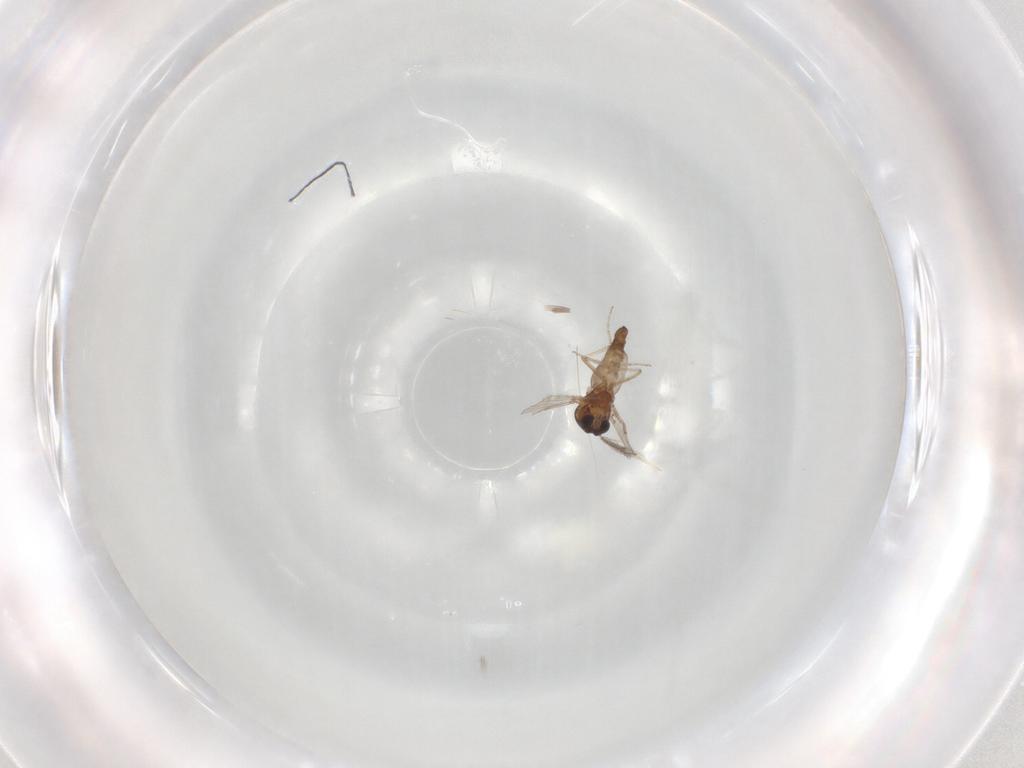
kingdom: Animalia
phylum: Arthropoda
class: Insecta
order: Diptera
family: Ceratopogonidae
